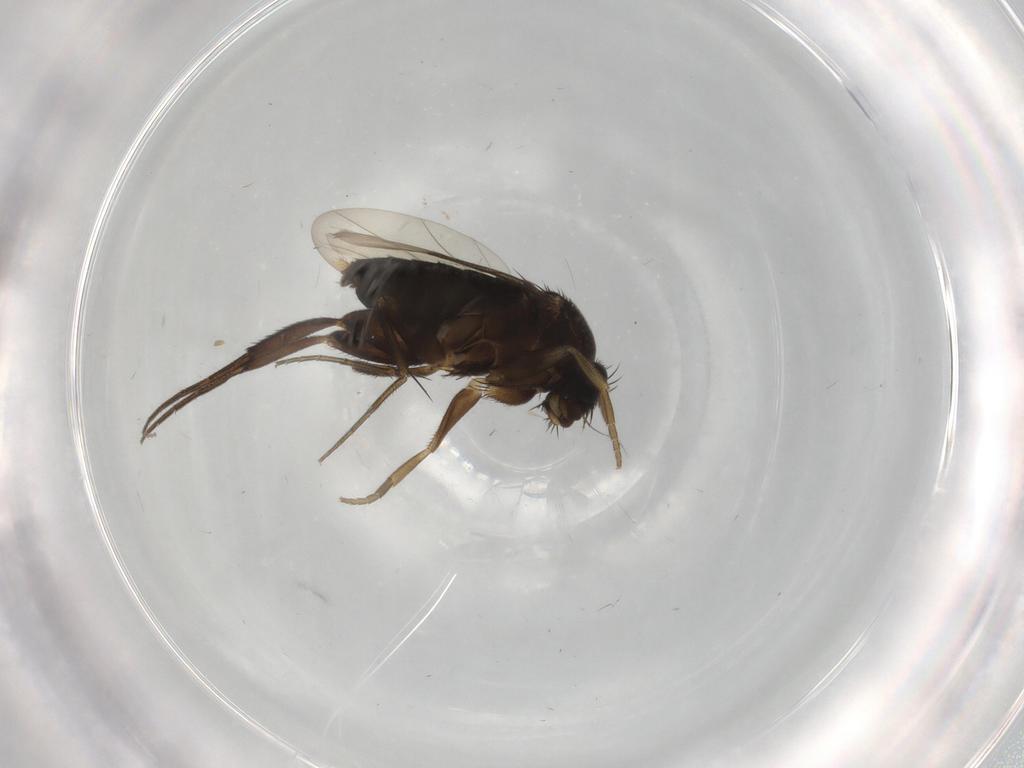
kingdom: Animalia
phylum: Arthropoda
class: Insecta
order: Diptera
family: Phoridae
